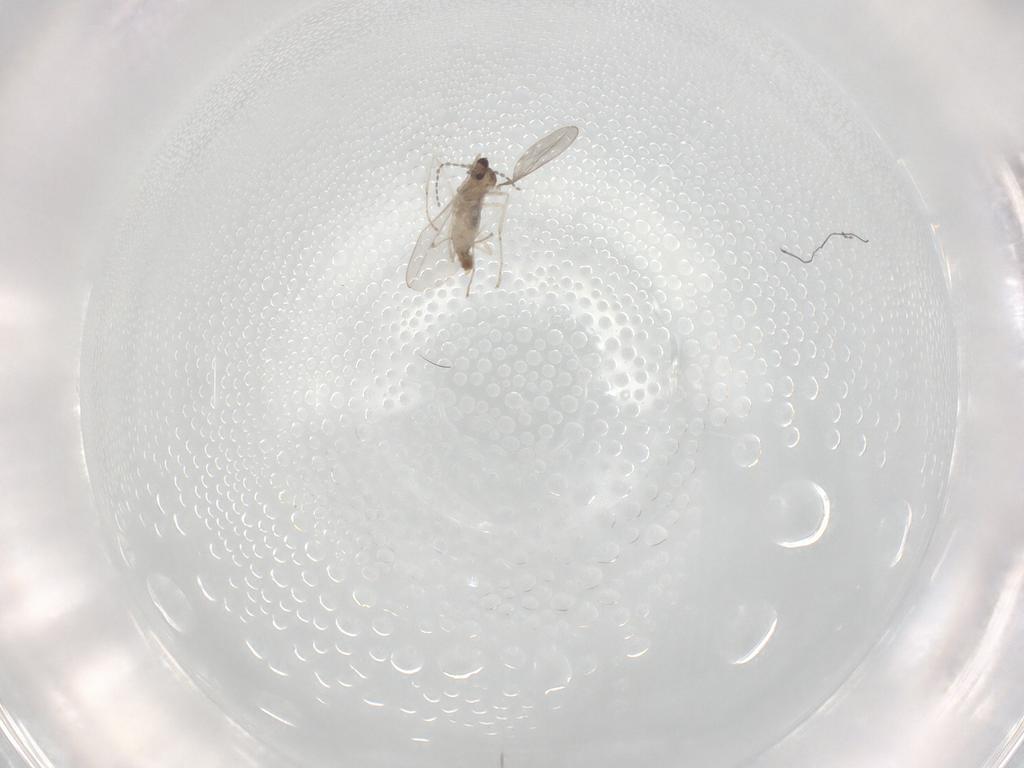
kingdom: Animalia
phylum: Arthropoda
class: Insecta
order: Diptera
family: Cecidomyiidae
